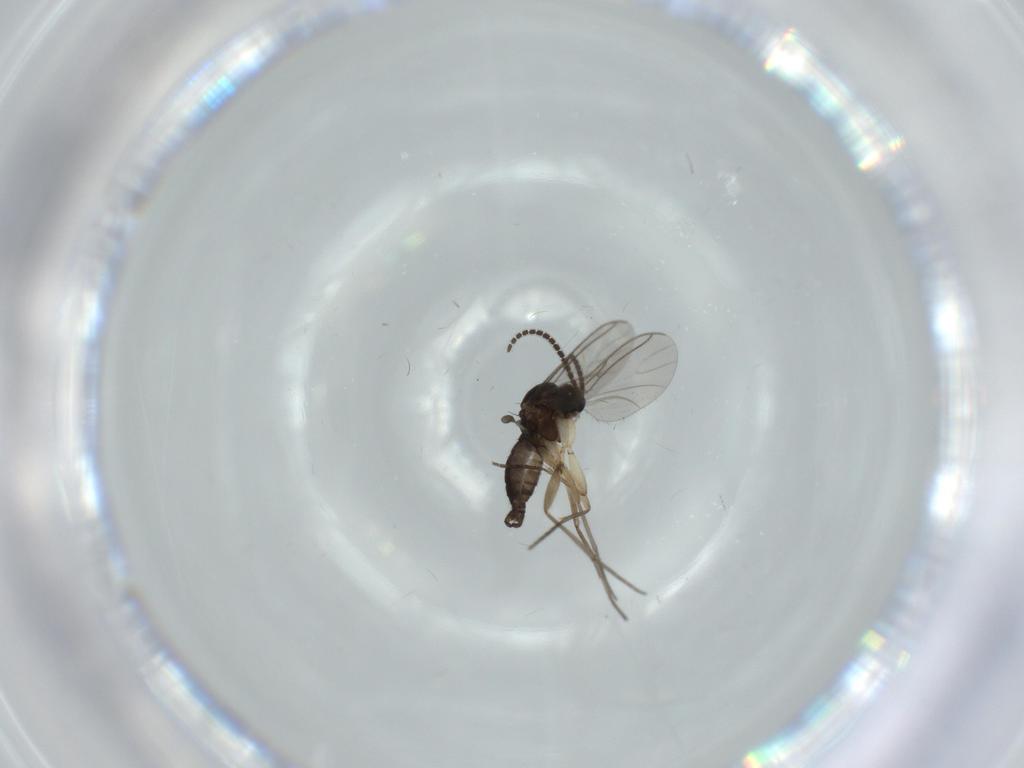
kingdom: Animalia
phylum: Arthropoda
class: Insecta
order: Diptera
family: Sciaridae
